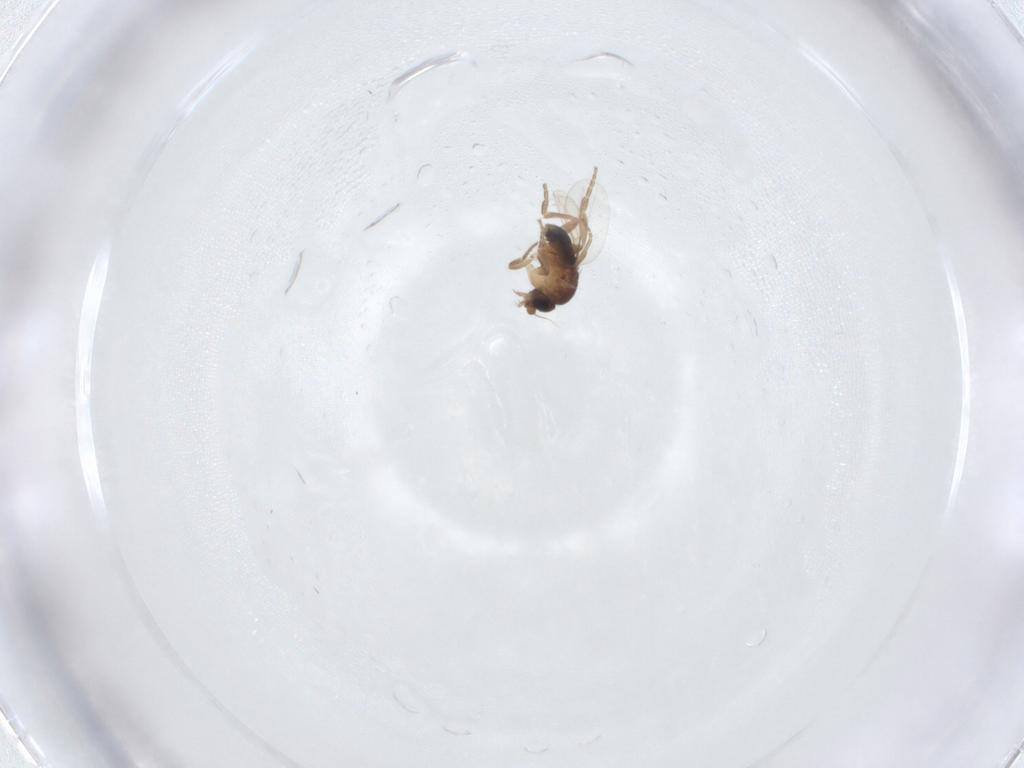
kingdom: Animalia
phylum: Arthropoda
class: Insecta
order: Diptera
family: Phoridae
